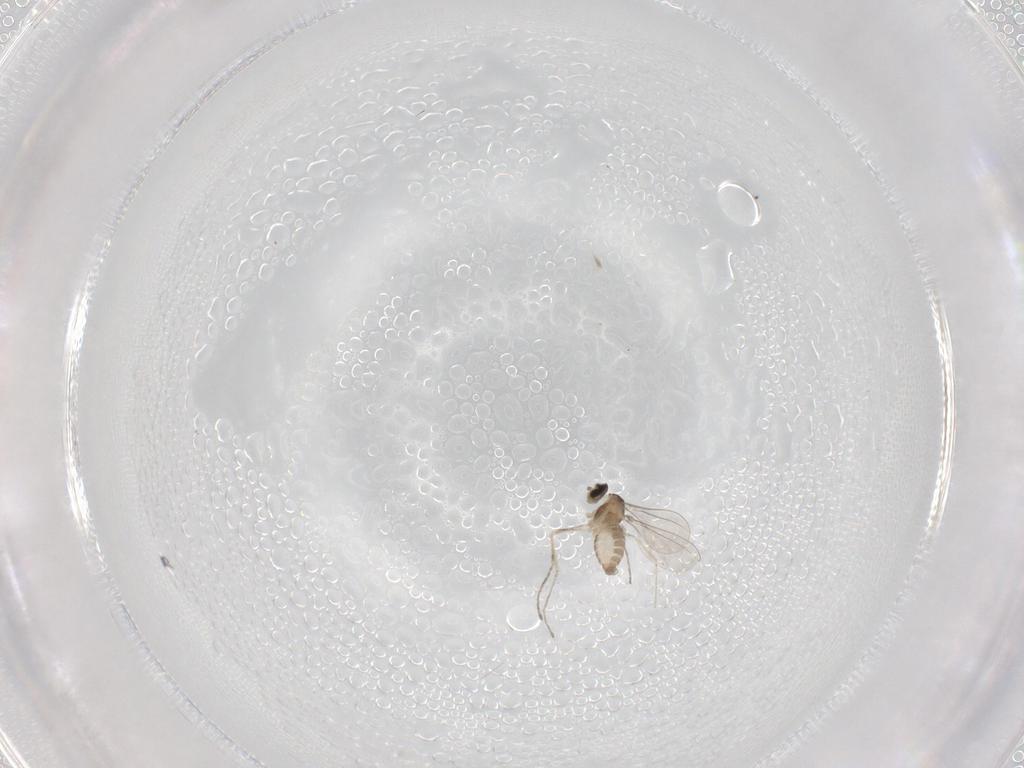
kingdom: Animalia
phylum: Arthropoda
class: Insecta
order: Diptera
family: Cecidomyiidae
